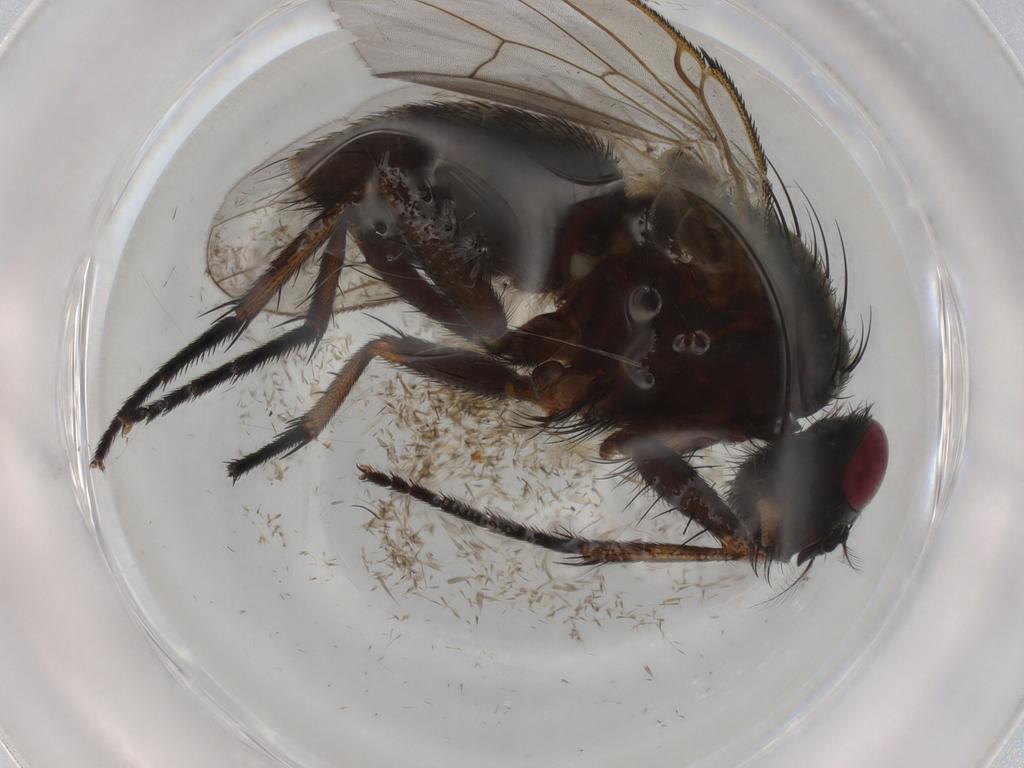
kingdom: Animalia
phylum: Arthropoda
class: Insecta
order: Diptera
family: Muscidae
